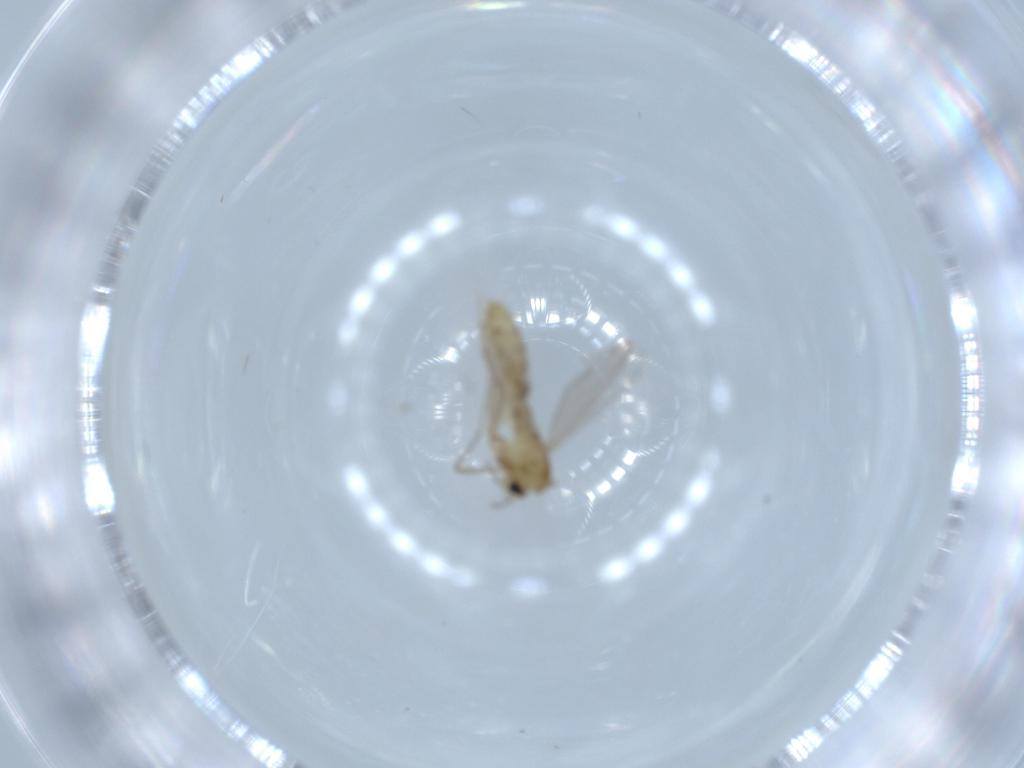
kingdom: Animalia
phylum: Arthropoda
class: Insecta
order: Diptera
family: Chironomidae
